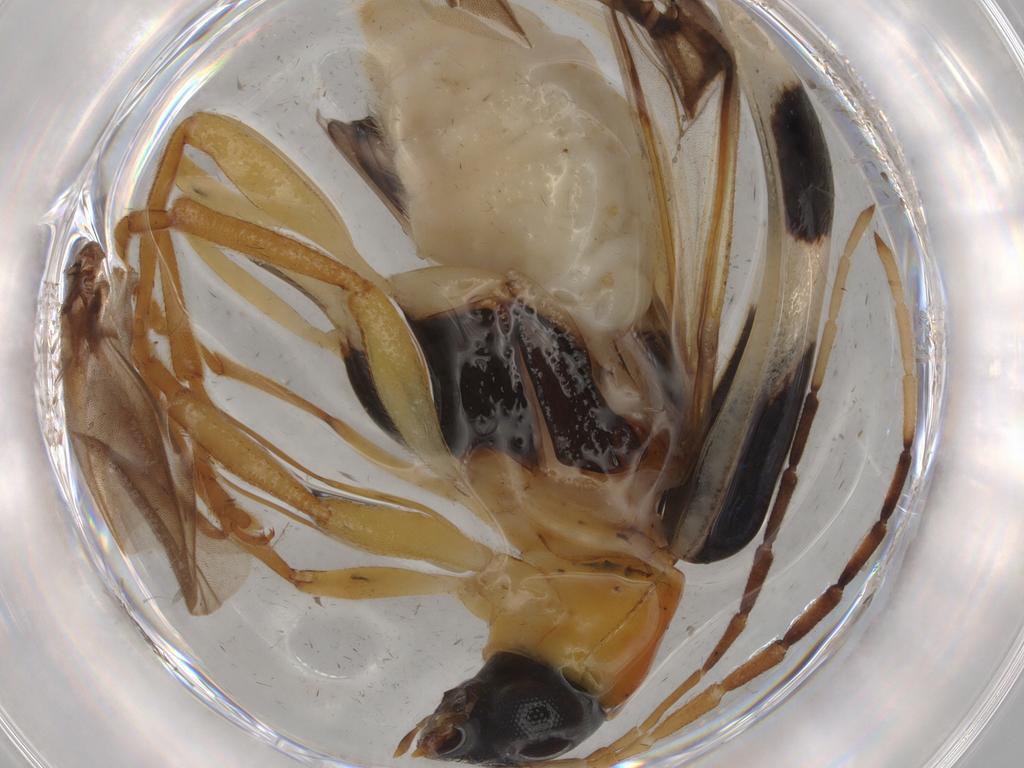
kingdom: Animalia
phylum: Arthropoda
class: Insecta
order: Coleoptera
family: Chrysomelidae
